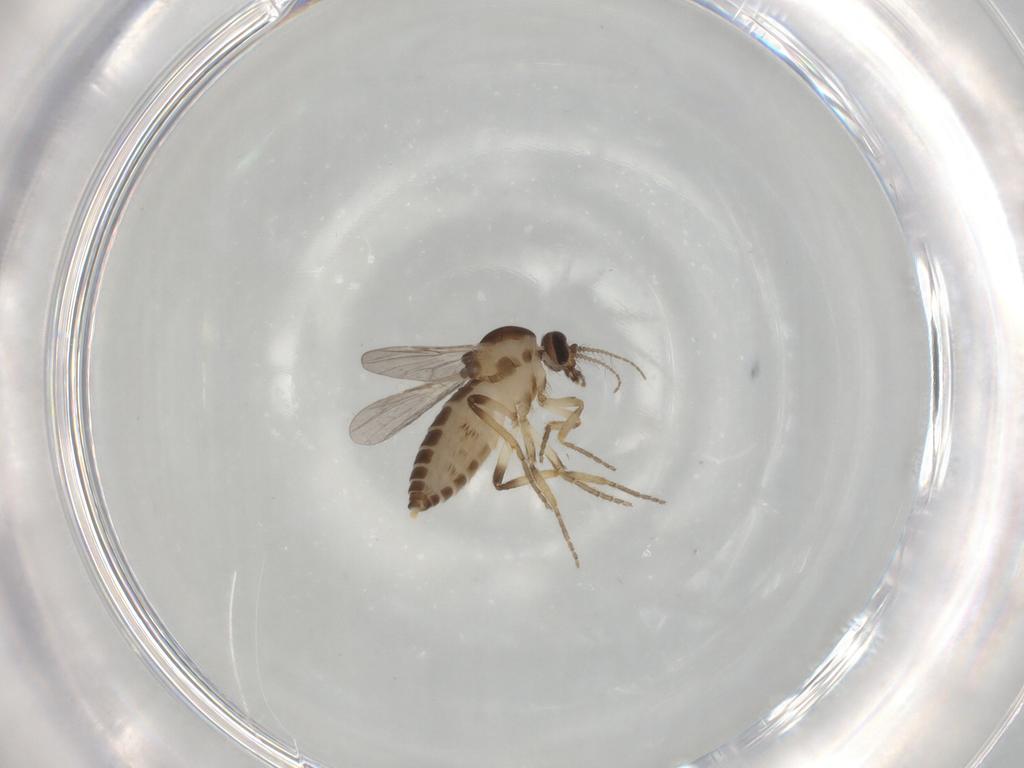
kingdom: Animalia
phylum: Arthropoda
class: Insecta
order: Diptera
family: Ceratopogonidae
